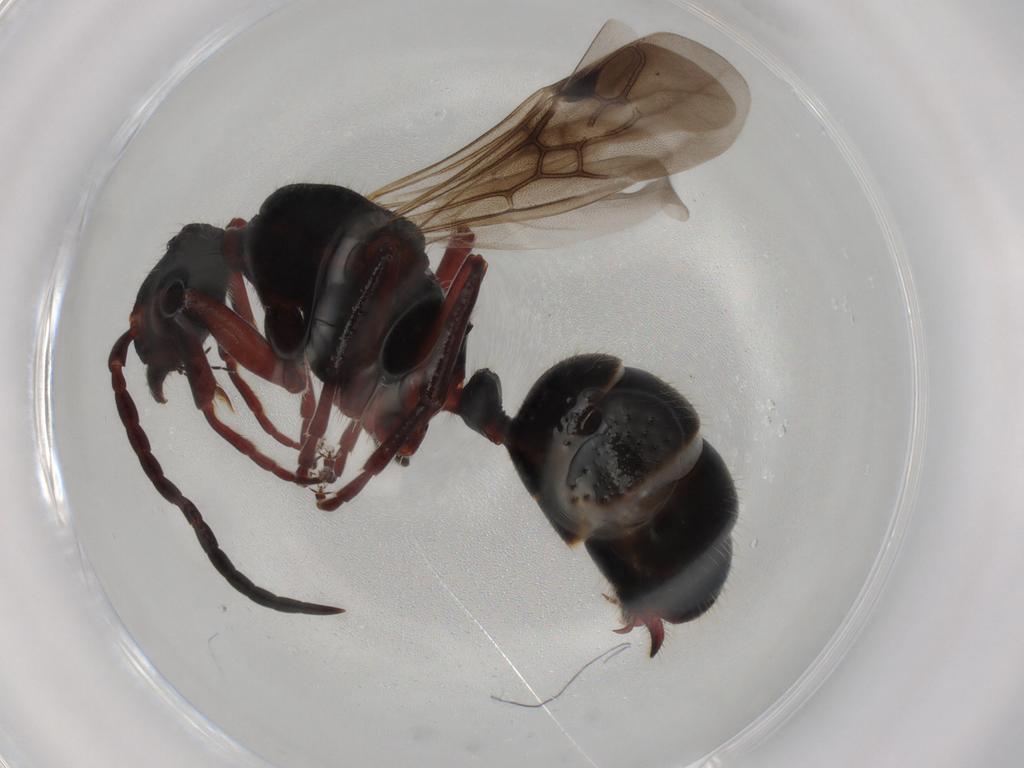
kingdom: Animalia
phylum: Arthropoda
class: Insecta
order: Hymenoptera
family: Formicidae
